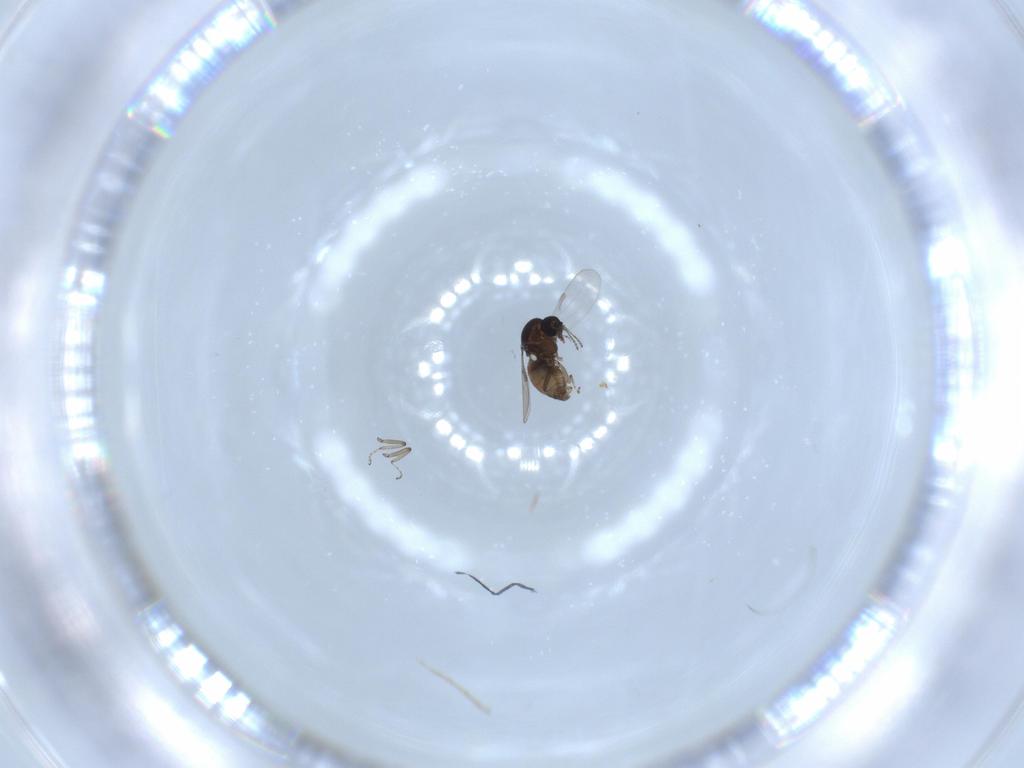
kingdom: Animalia
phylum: Arthropoda
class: Insecta
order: Diptera
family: Ceratopogonidae
